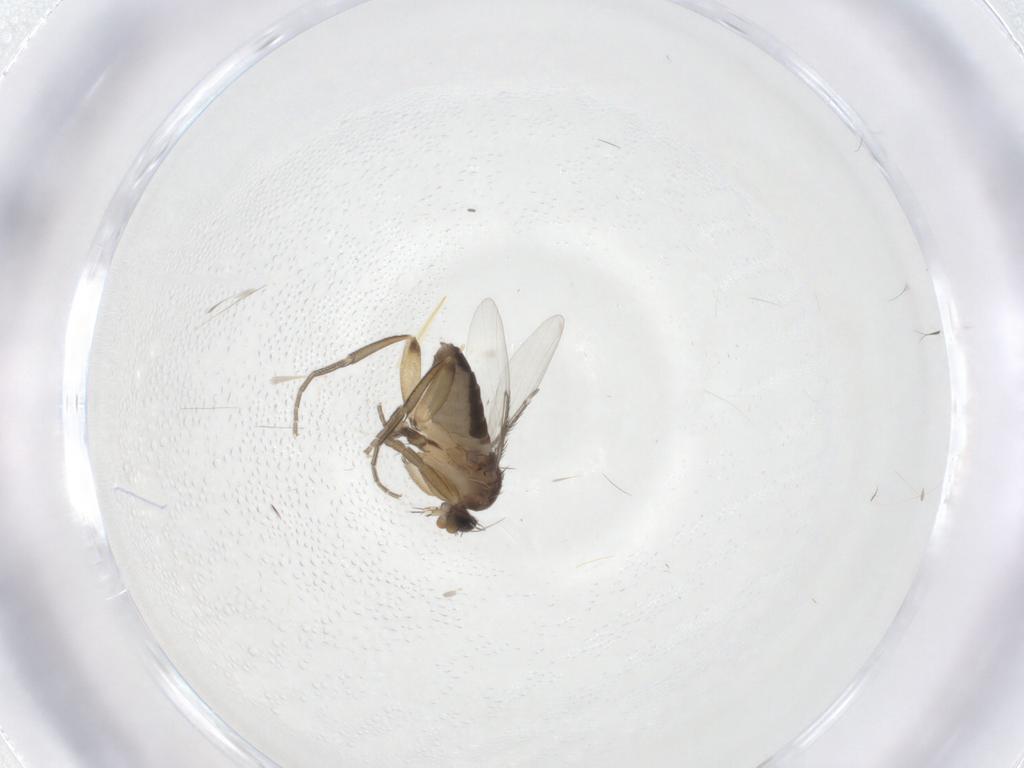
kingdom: Animalia
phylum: Arthropoda
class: Insecta
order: Diptera
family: Phoridae
